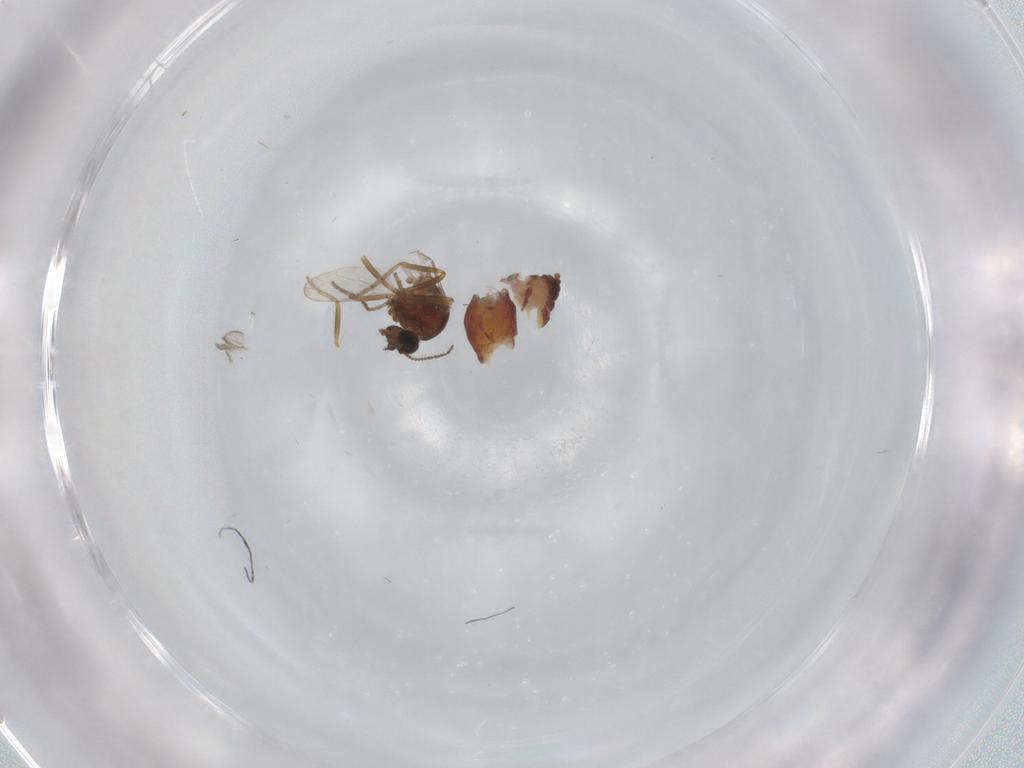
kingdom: Animalia
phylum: Arthropoda
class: Insecta
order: Diptera
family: Ceratopogonidae
